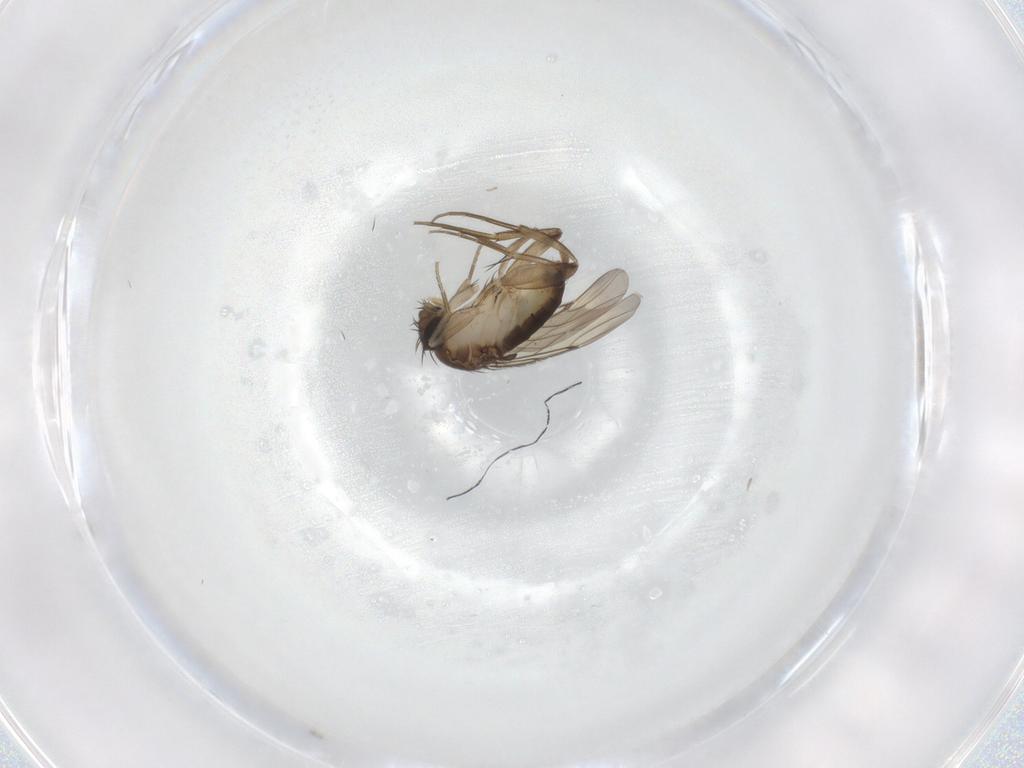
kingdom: Animalia
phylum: Arthropoda
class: Insecta
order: Diptera
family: Phoridae
